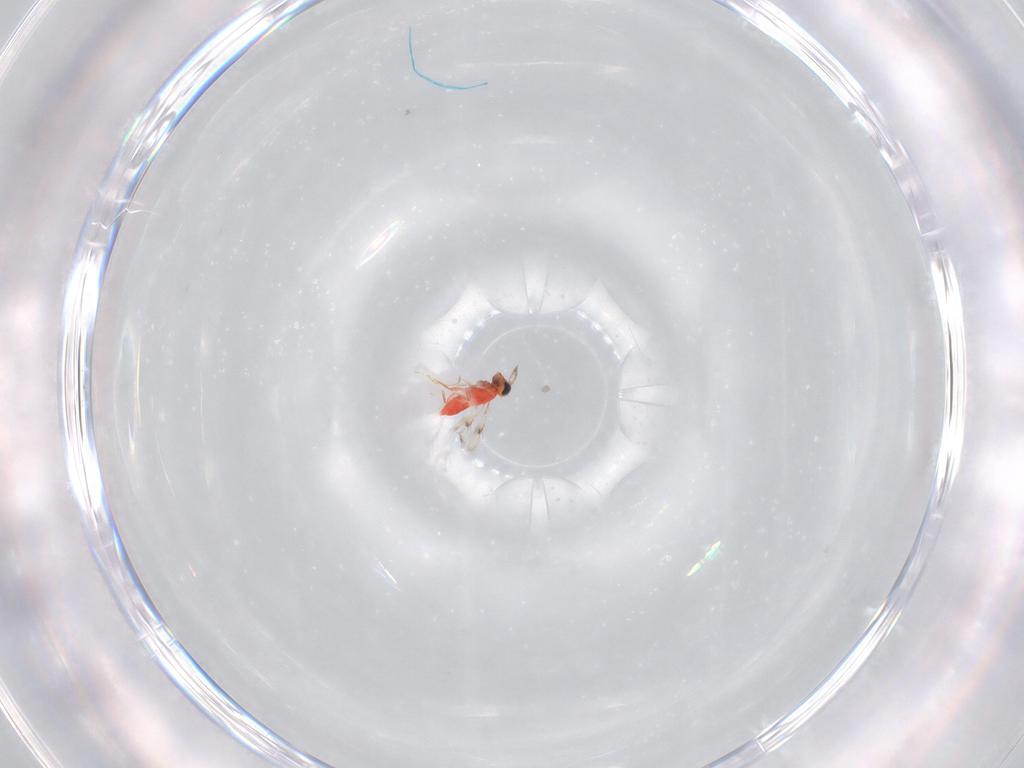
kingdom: Animalia
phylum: Arthropoda
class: Insecta
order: Hymenoptera
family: Trichogrammatidae
